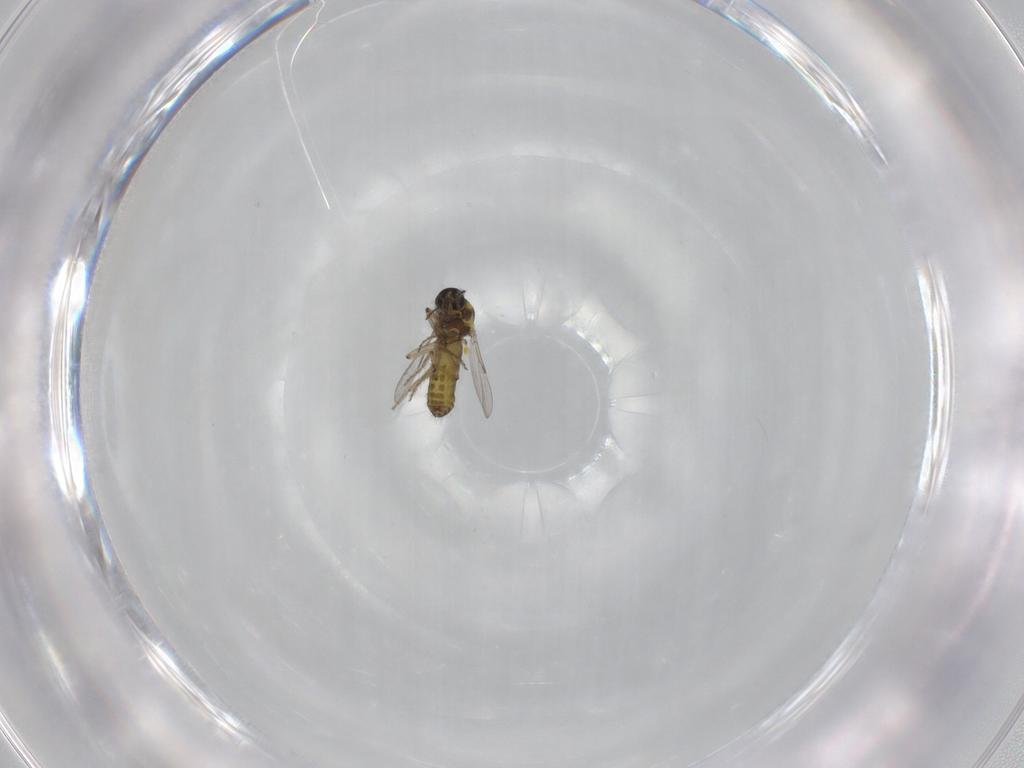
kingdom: Animalia
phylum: Arthropoda
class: Insecta
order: Diptera
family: Ceratopogonidae
